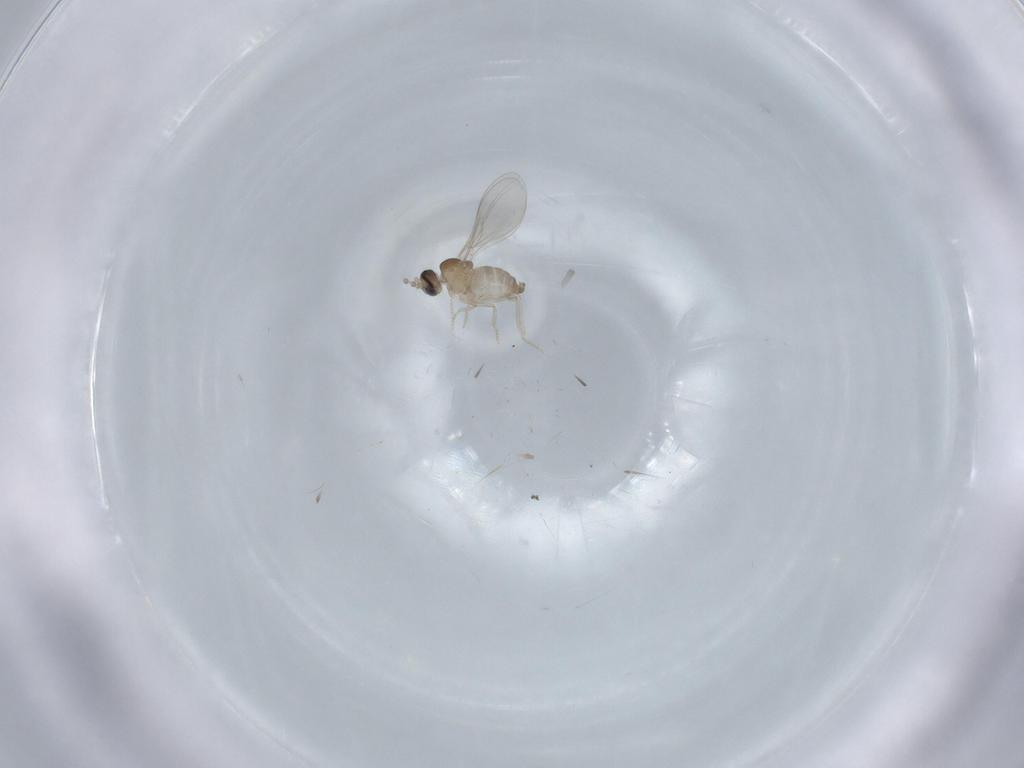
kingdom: Animalia
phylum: Arthropoda
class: Insecta
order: Diptera
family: Cecidomyiidae
